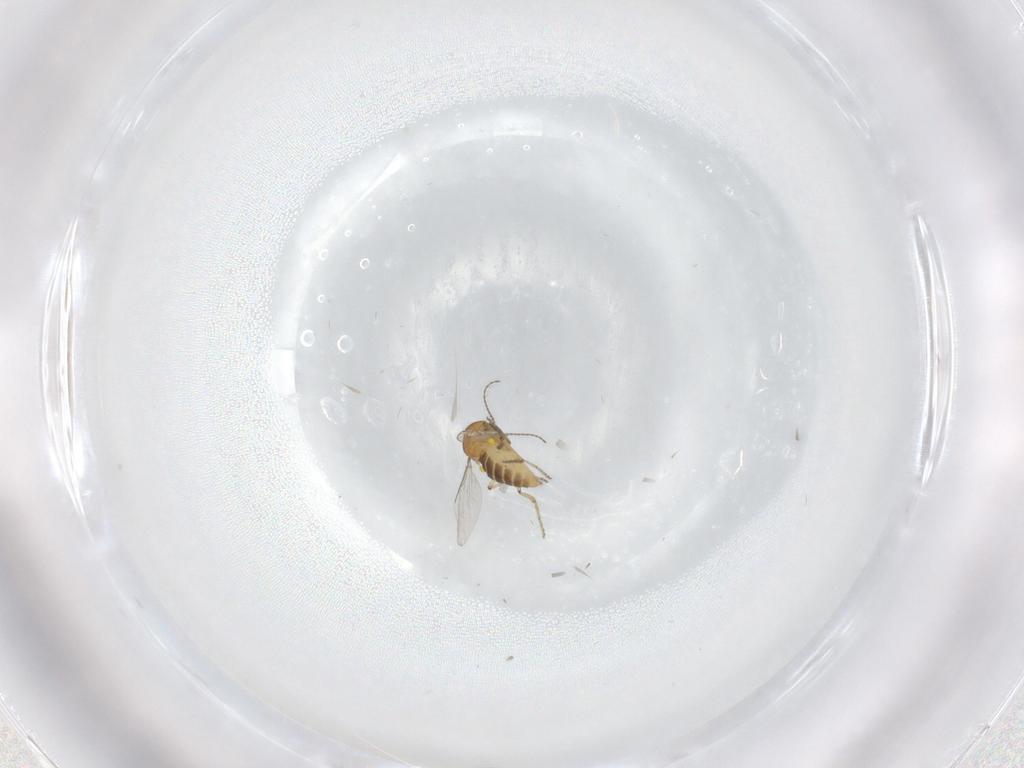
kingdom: Animalia
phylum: Arthropoda
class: Insecta
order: Diptera
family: Ceratopogonidae
